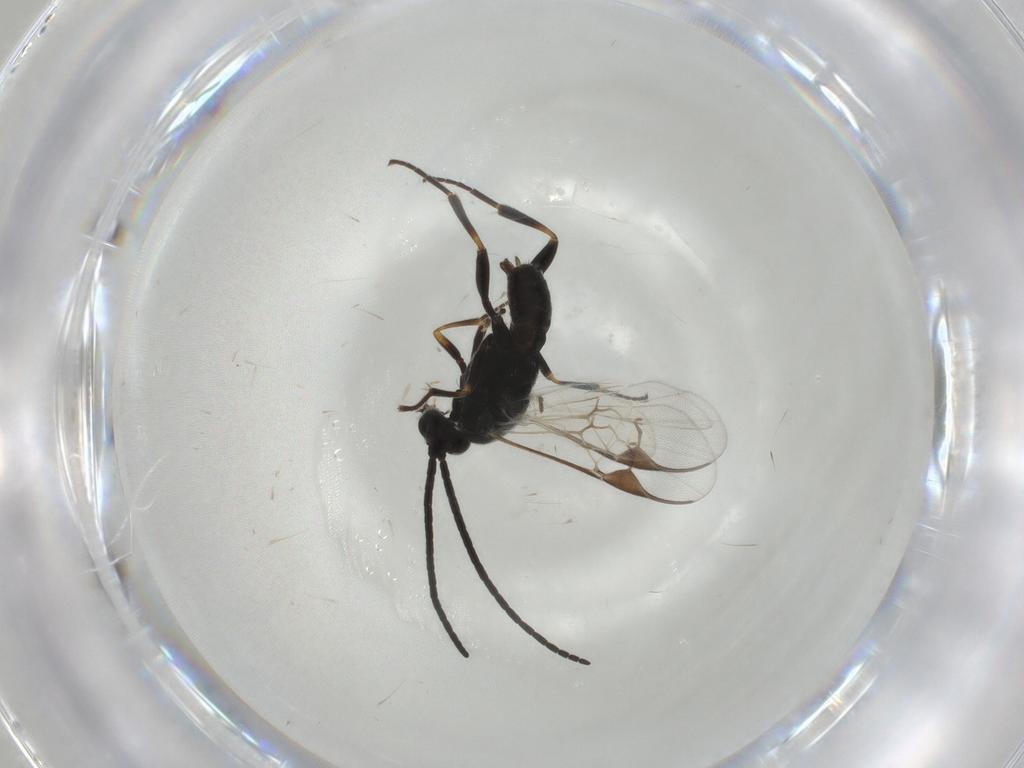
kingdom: Animalia
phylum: Arthropoda
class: Insecta
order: Hymenoptera
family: Braconidae
